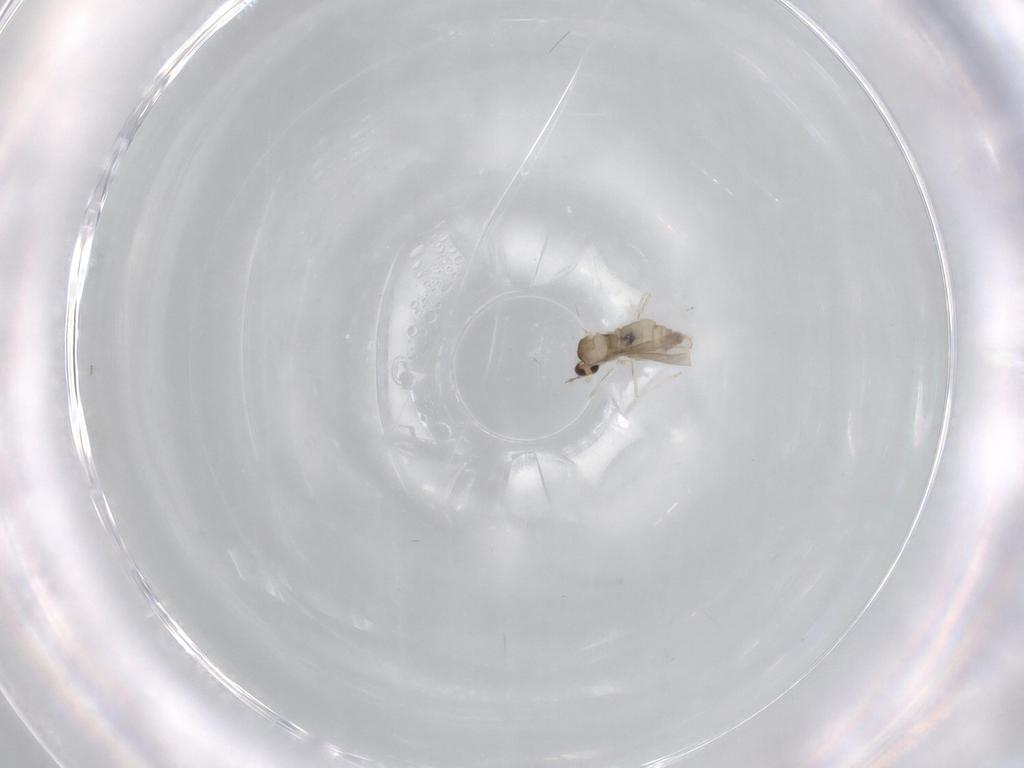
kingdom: Animalia
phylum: Arthropoda
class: Insecta
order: Diptera
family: Cecidomyiidae
